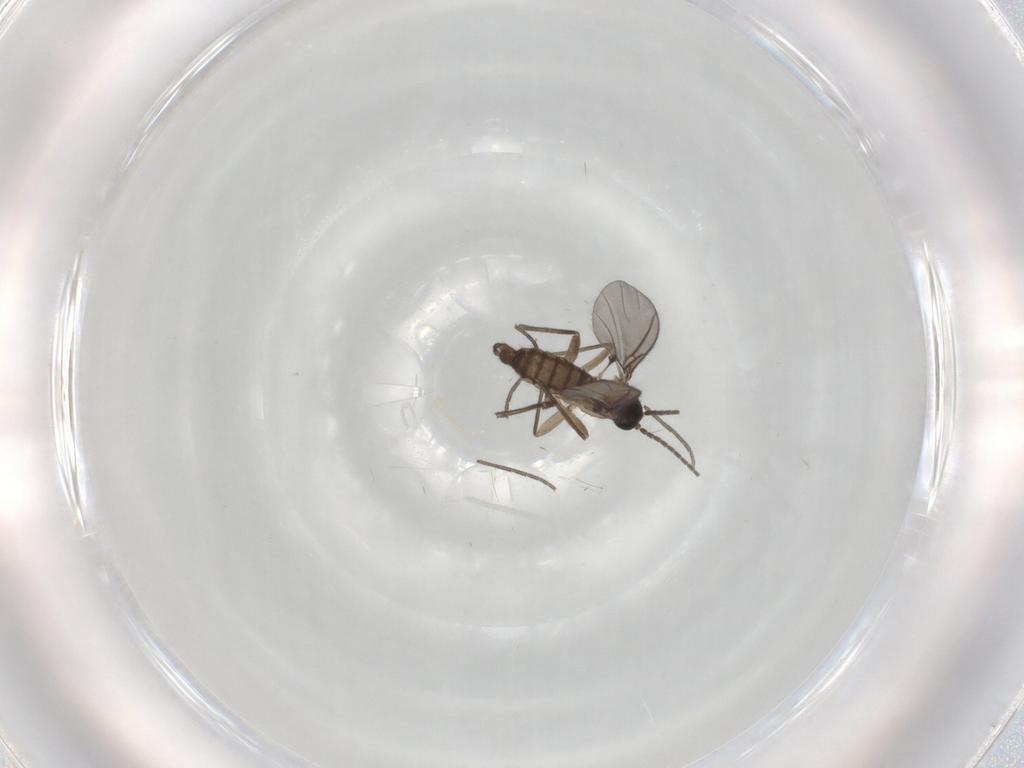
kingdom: Animalia
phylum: Arthropoda
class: Insecta
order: Diptera
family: Sciaridae
